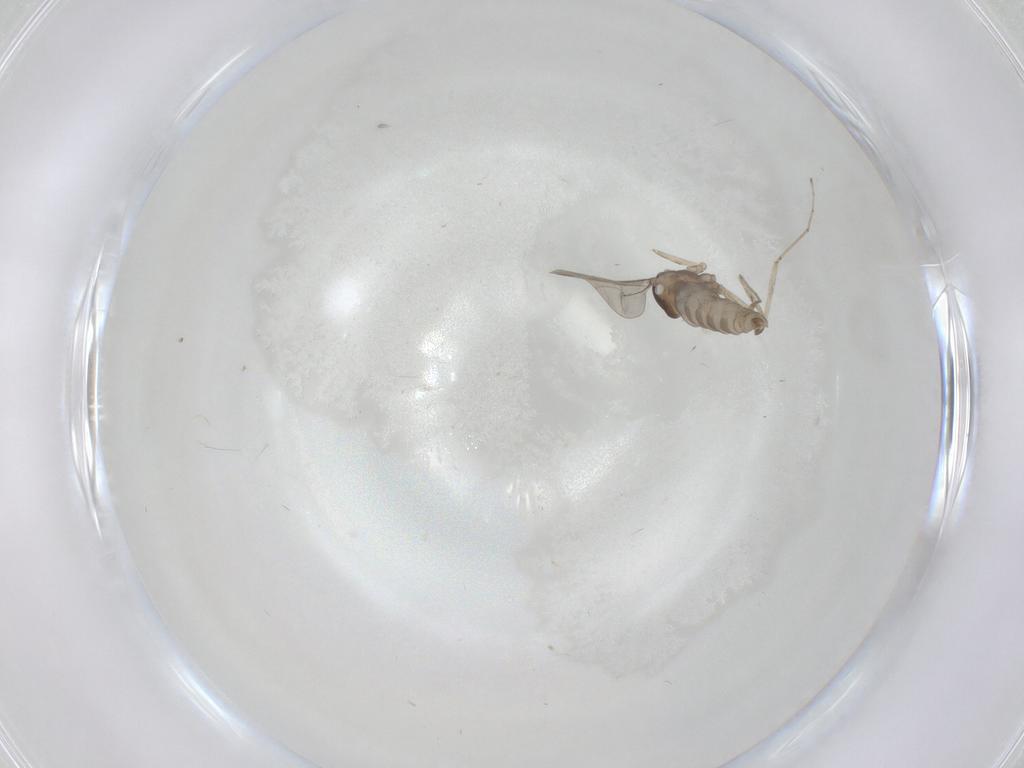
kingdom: Animalia
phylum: Arthropoda
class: Insecta
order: Diptera
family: Cecidomyiidae
